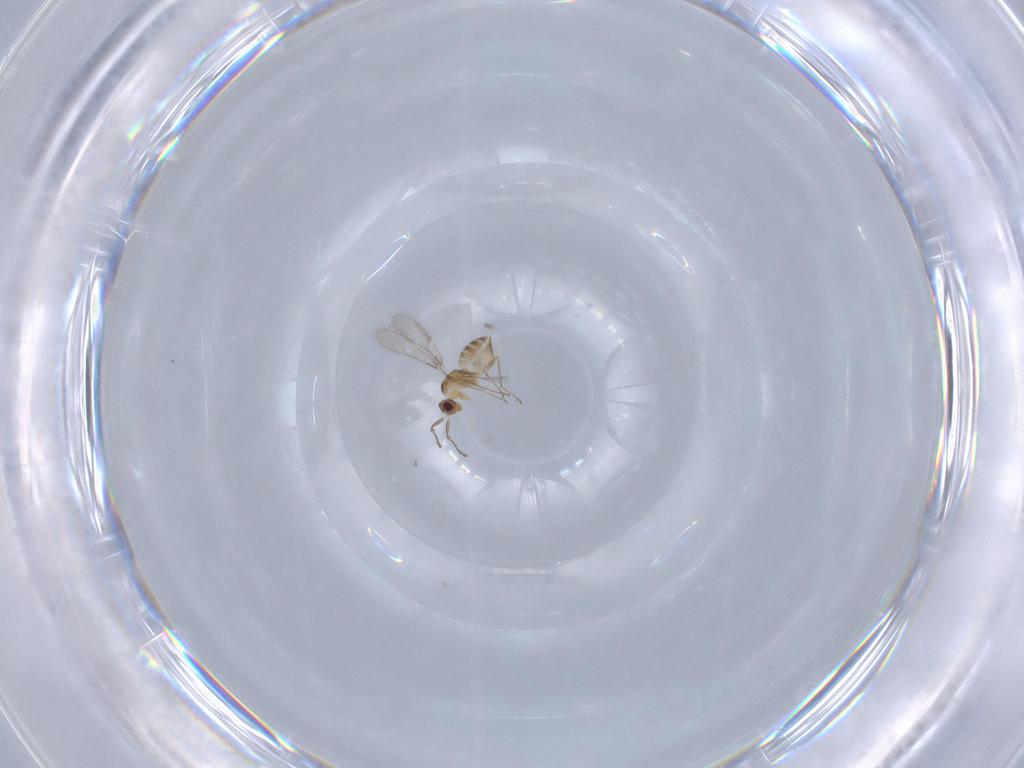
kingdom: Animalia
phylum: Arthropoda
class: Insecta
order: Hymenoptera
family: Mymaridae
